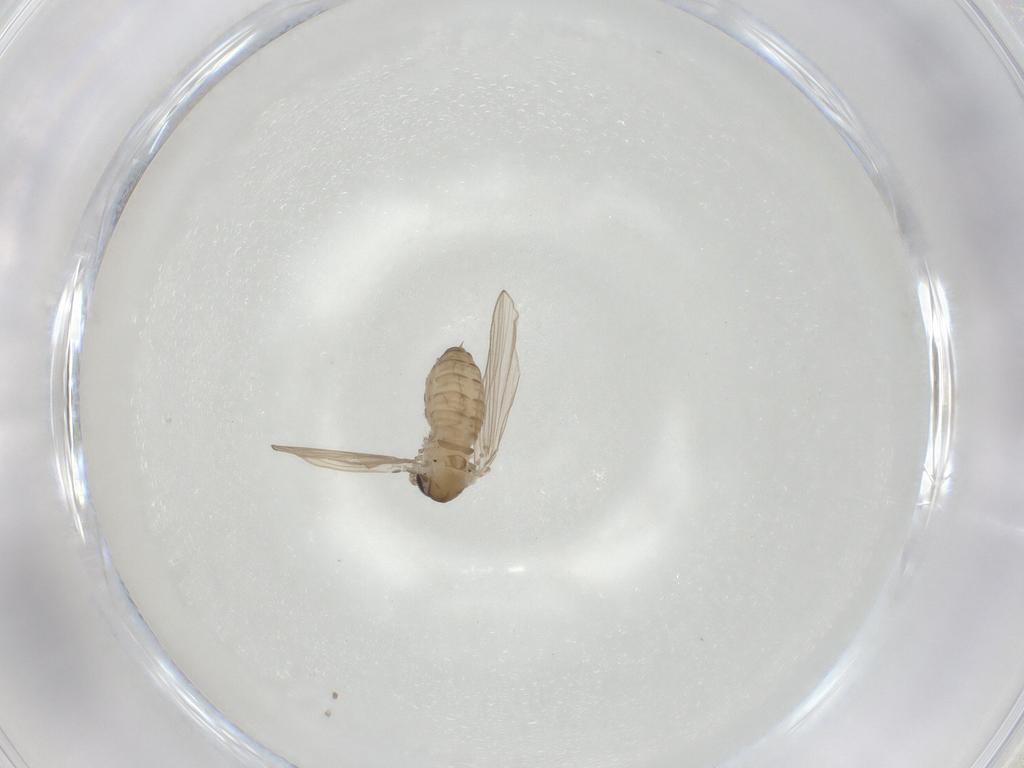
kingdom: Animalia
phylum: Arthropoda
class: Insecta
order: Diptera
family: Psychodidae
